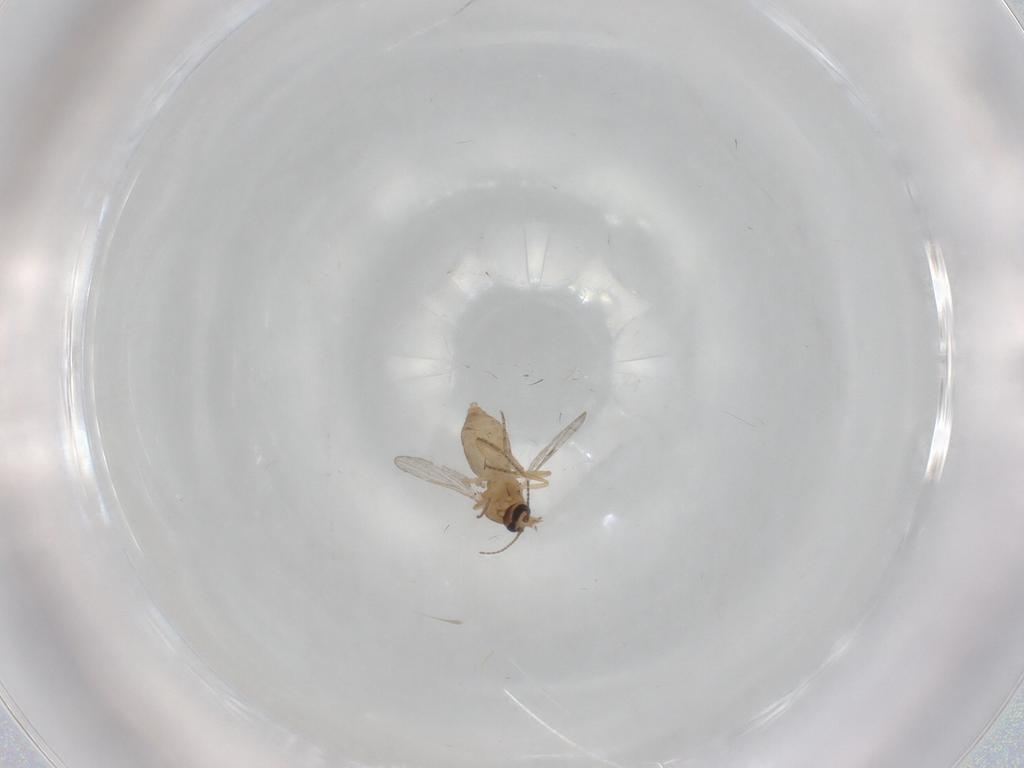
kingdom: Animalia
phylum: Arthropoda
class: Insecta
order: Diptera
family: Ceratopogonidae
